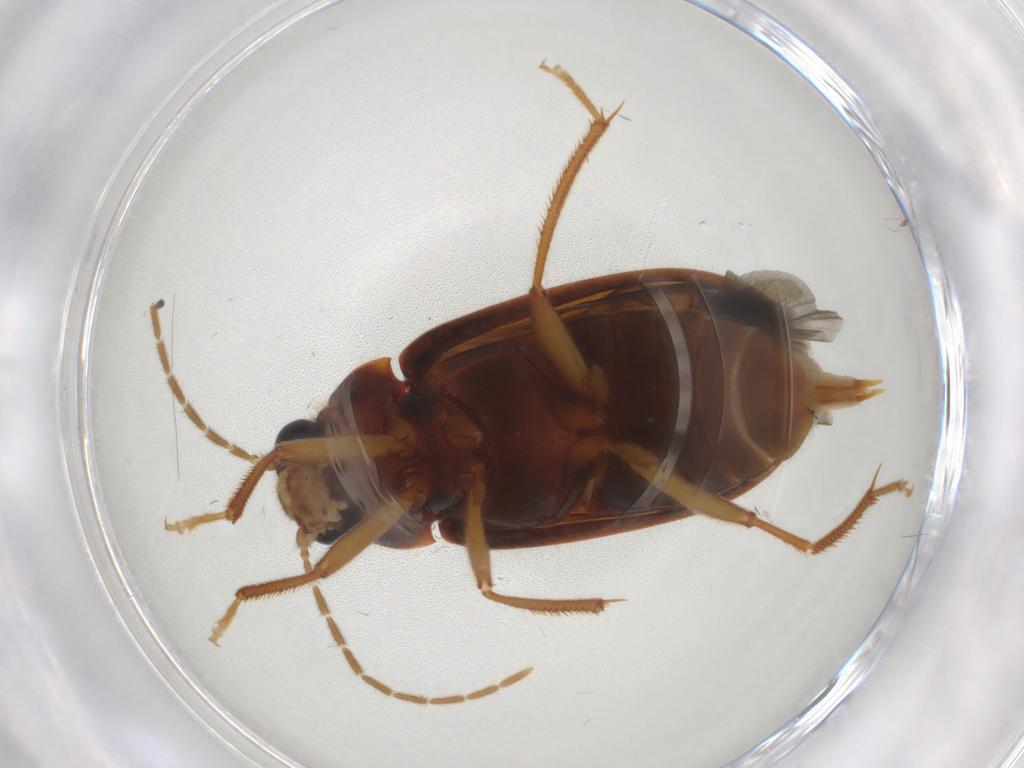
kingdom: Animalia
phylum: Arthropoda
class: Insecta
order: Coleoptera
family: Ptilodactylidae
